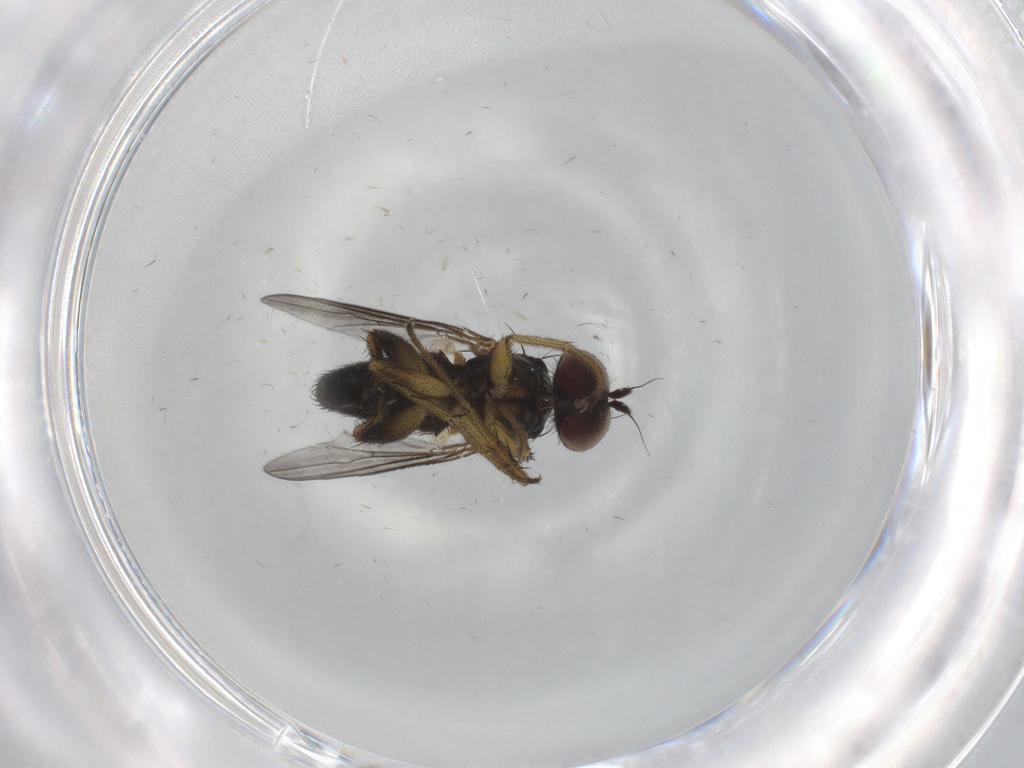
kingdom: Animalia
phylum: Arthropoda
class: Insecta
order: Diptera
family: Dolichopodidae
